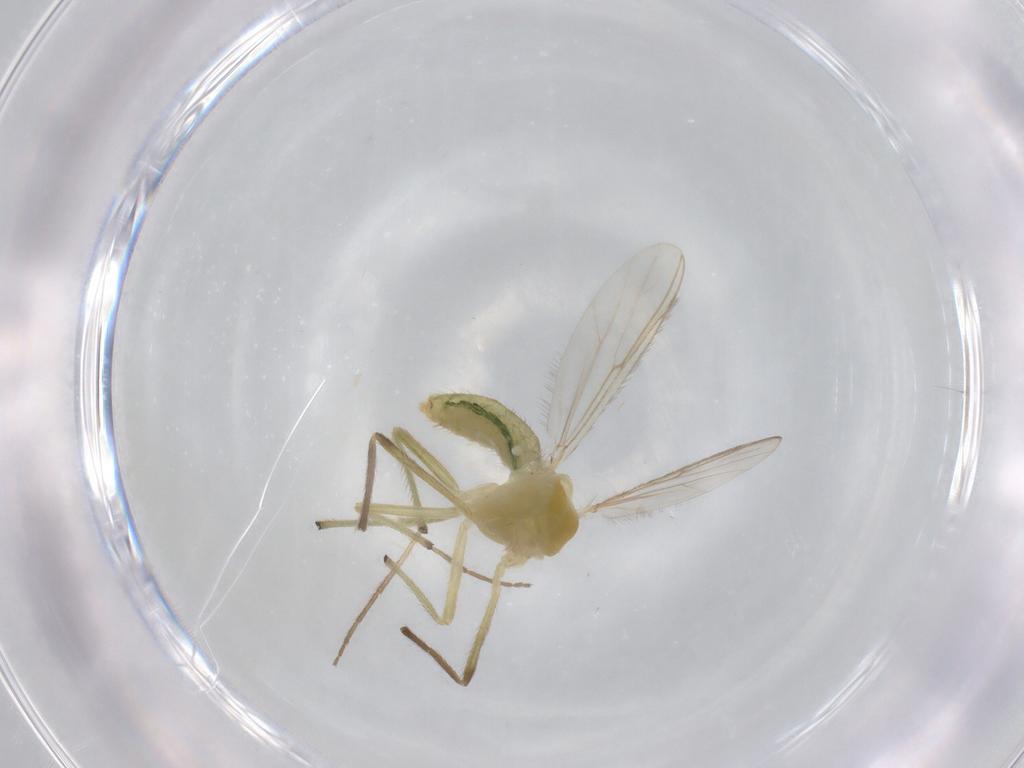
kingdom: Animalia
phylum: Arthropoda
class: Insecta
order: Diptera
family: Chironomidae
